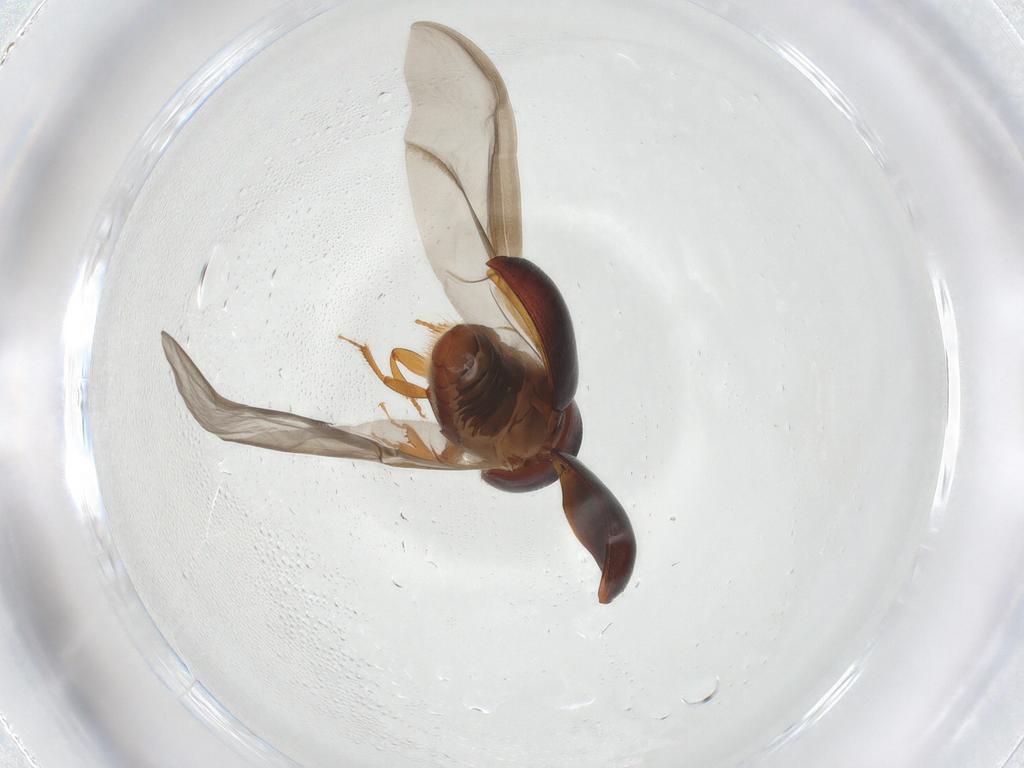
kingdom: Animalia
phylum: Arthropoda
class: Insecta
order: Coleoptera
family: Curculionidae
